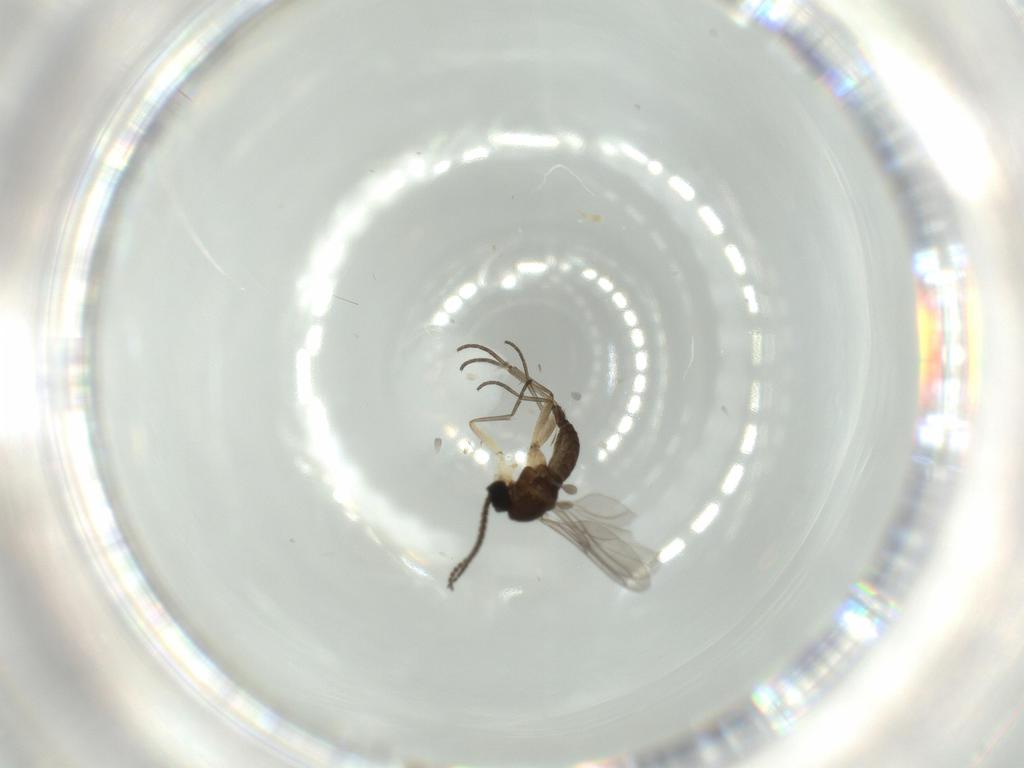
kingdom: Animalia
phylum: Arthropoda
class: Insecta
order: Diptera
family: Sciaridae
